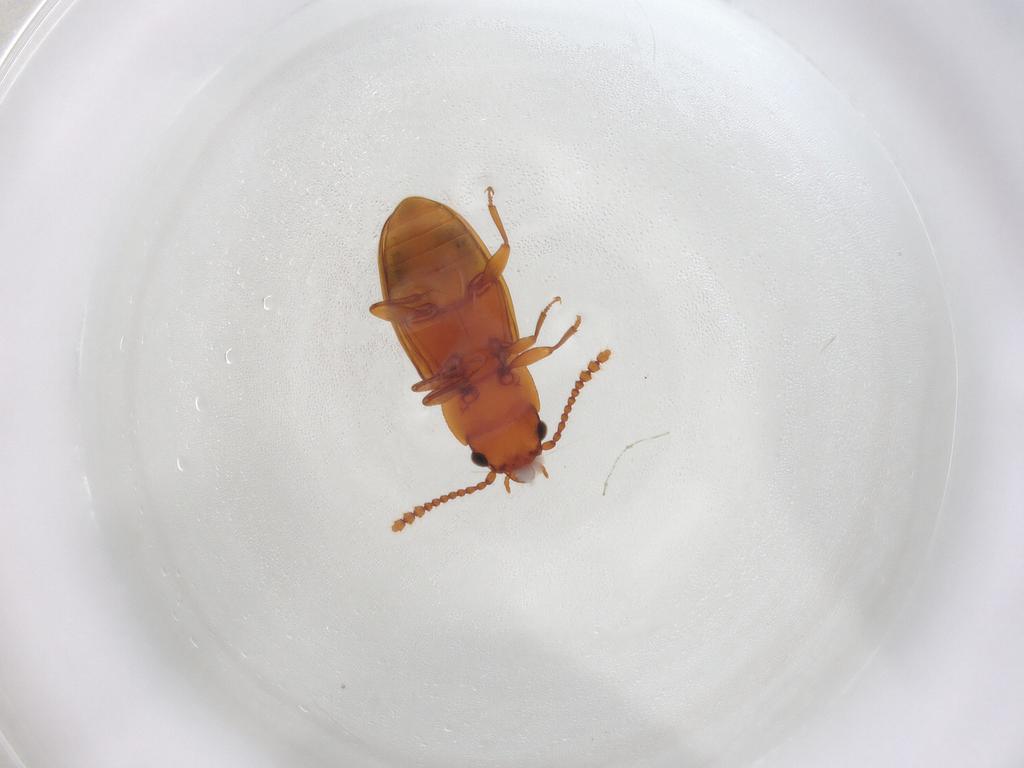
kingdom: Animalia
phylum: Arthropoda
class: Insecta
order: Coleoptera
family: Laemophloeidae
